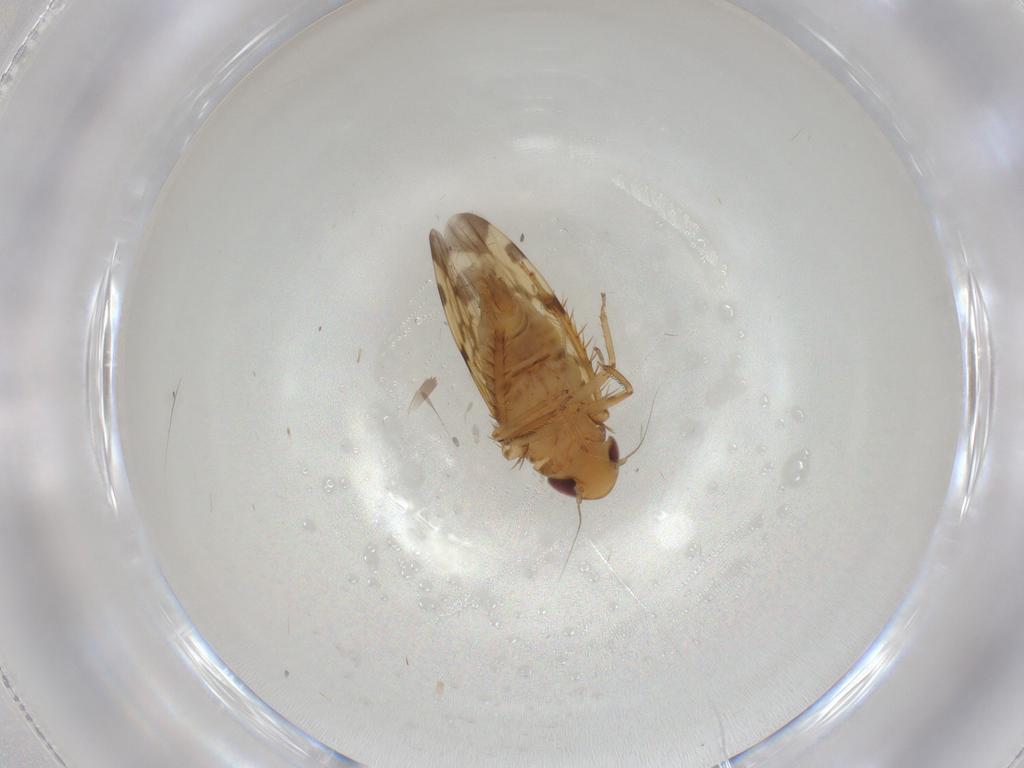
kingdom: Animalia
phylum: Arthropoda
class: Insecta
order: Hemiptera
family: Cicadellidae
